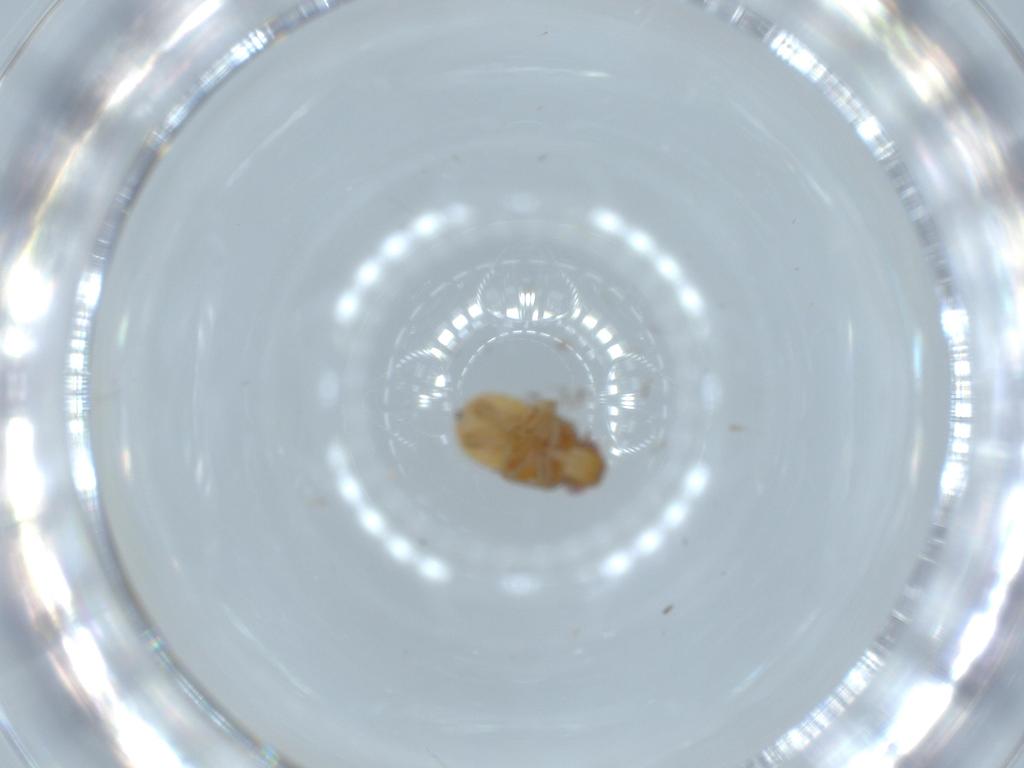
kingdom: Animalia
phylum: Arthropoda
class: Insecta
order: Hemiptera
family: Issidae
